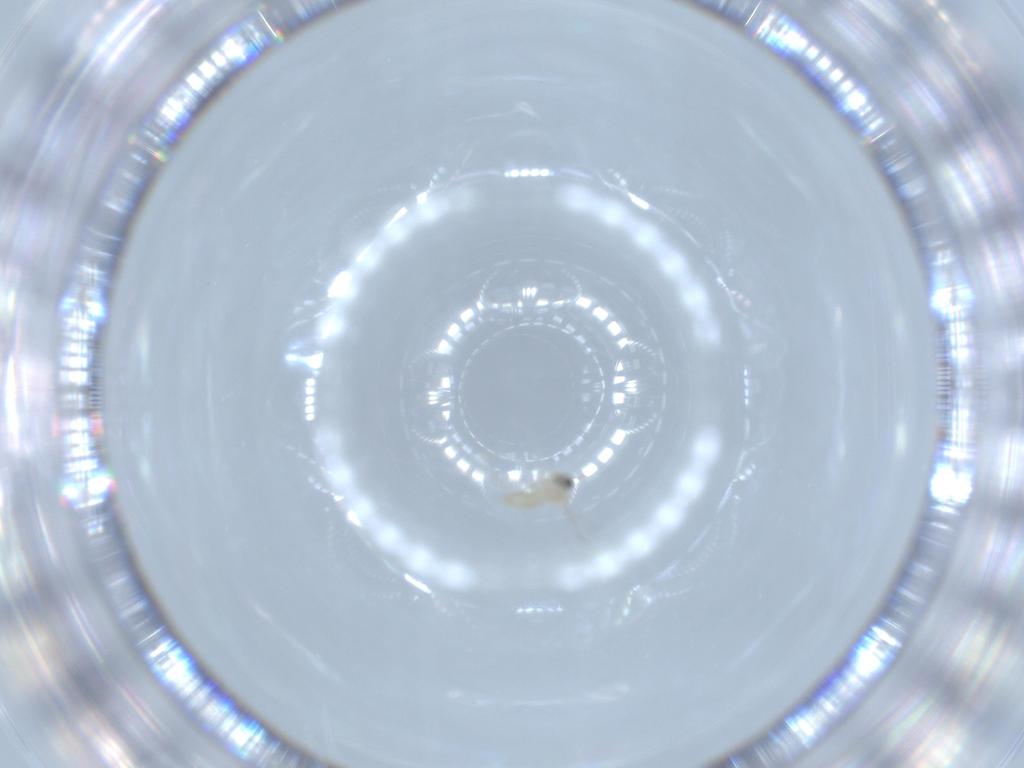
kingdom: Animalia
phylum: Arthropoda
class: Insecta
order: Diptera
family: Cecidomyiidae
